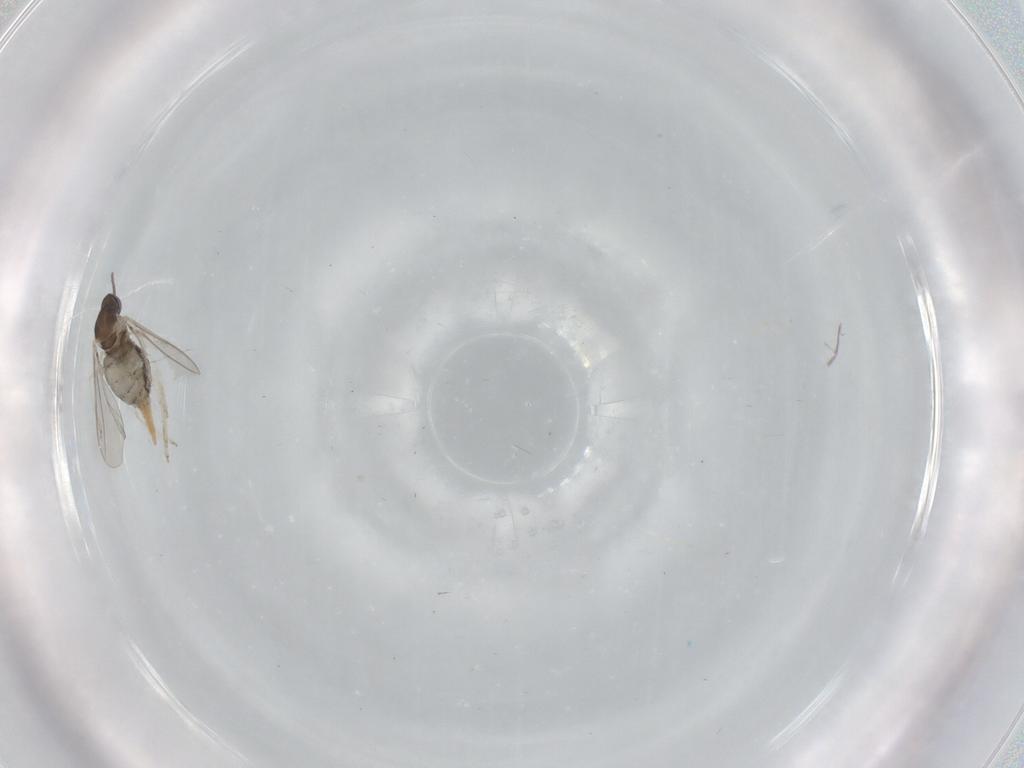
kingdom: Animalia
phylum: Arthropoda
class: Insecta
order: Diptera
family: Cecidomyiidae
